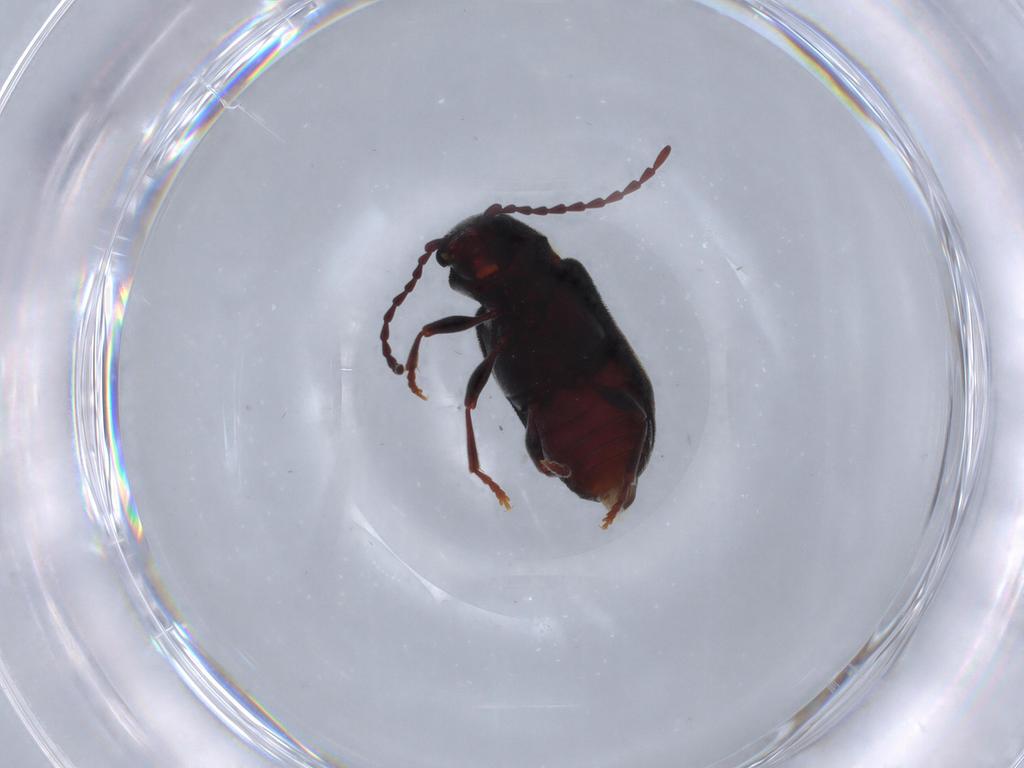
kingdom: Animalia
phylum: Arthropoda
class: Insecta
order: Coleoptera
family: Ptinidae
